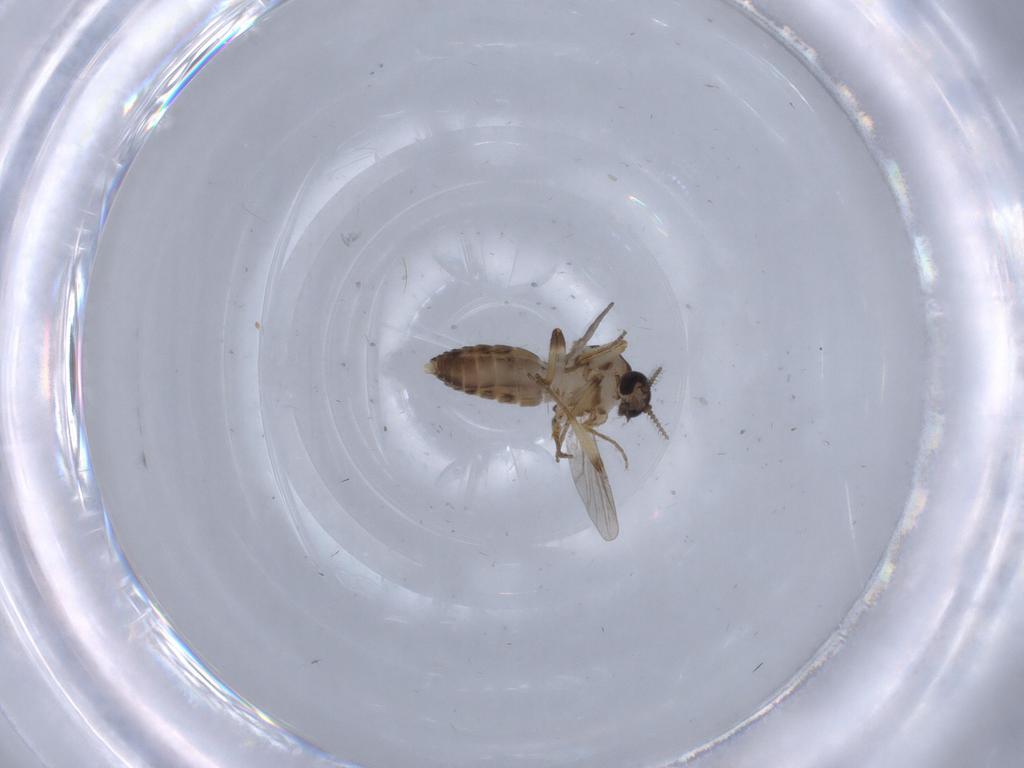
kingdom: Animalia
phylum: Arthropoda
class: Insecta
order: Diptera
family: Ceratopogonidae
